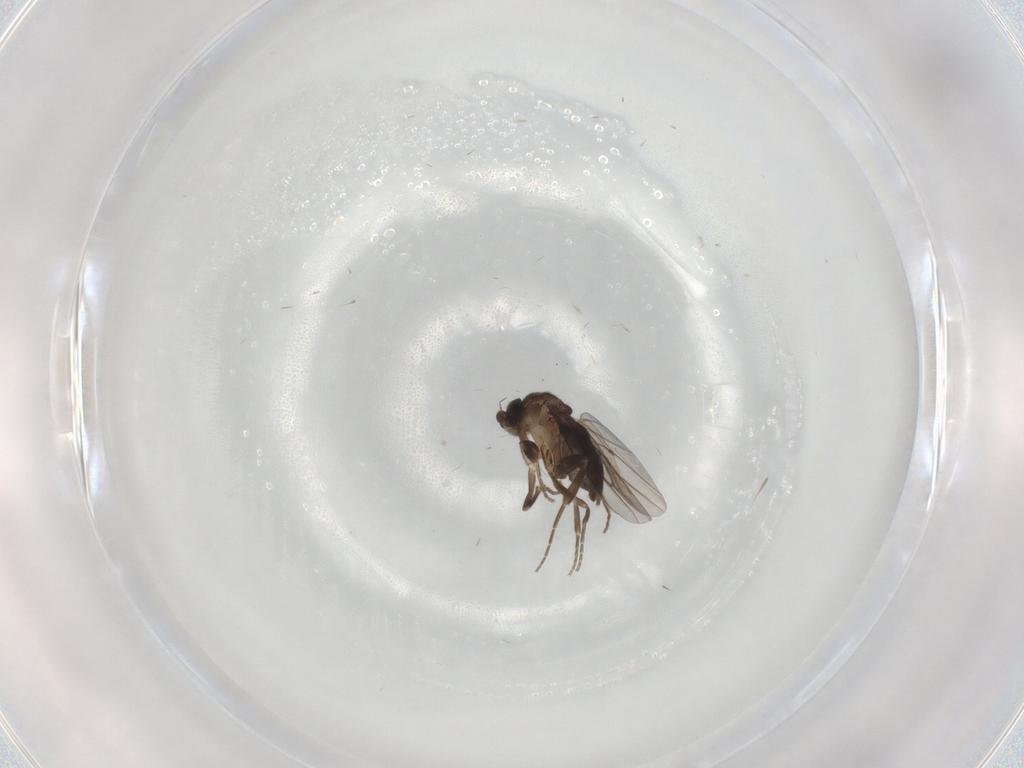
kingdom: Animalia
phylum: Arthropoda
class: Insecta
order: Diptera
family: Phoridae
